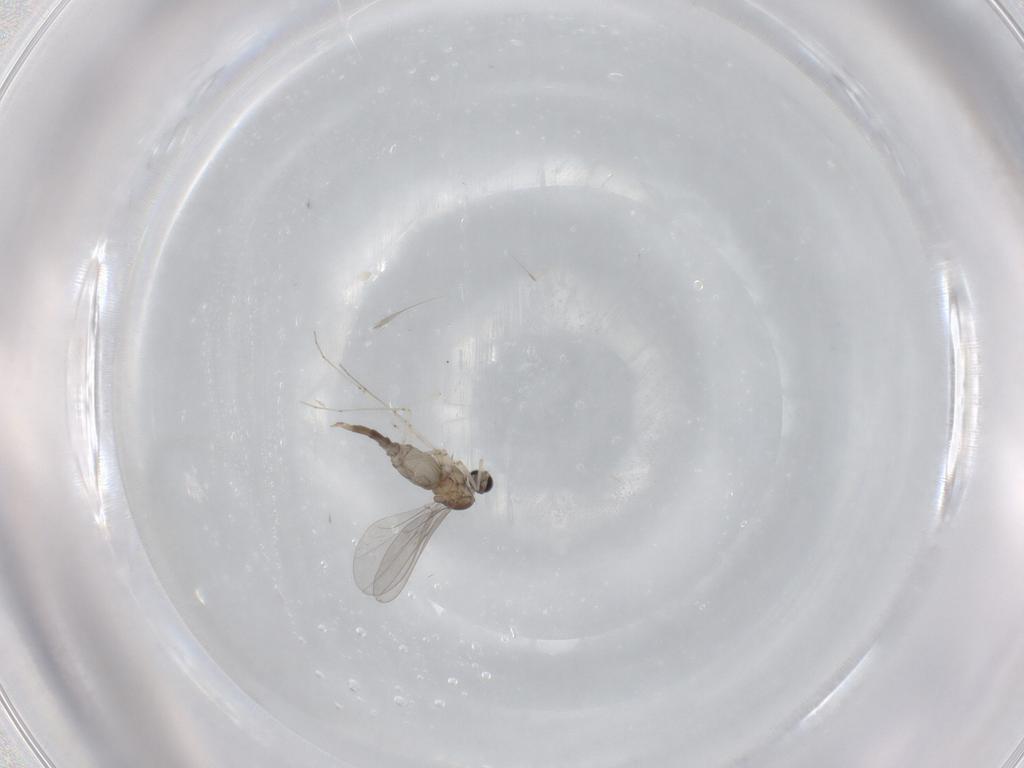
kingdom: Animalia
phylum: Arthropoda
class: Insecta
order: Diptera
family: Cecidomyiidae
